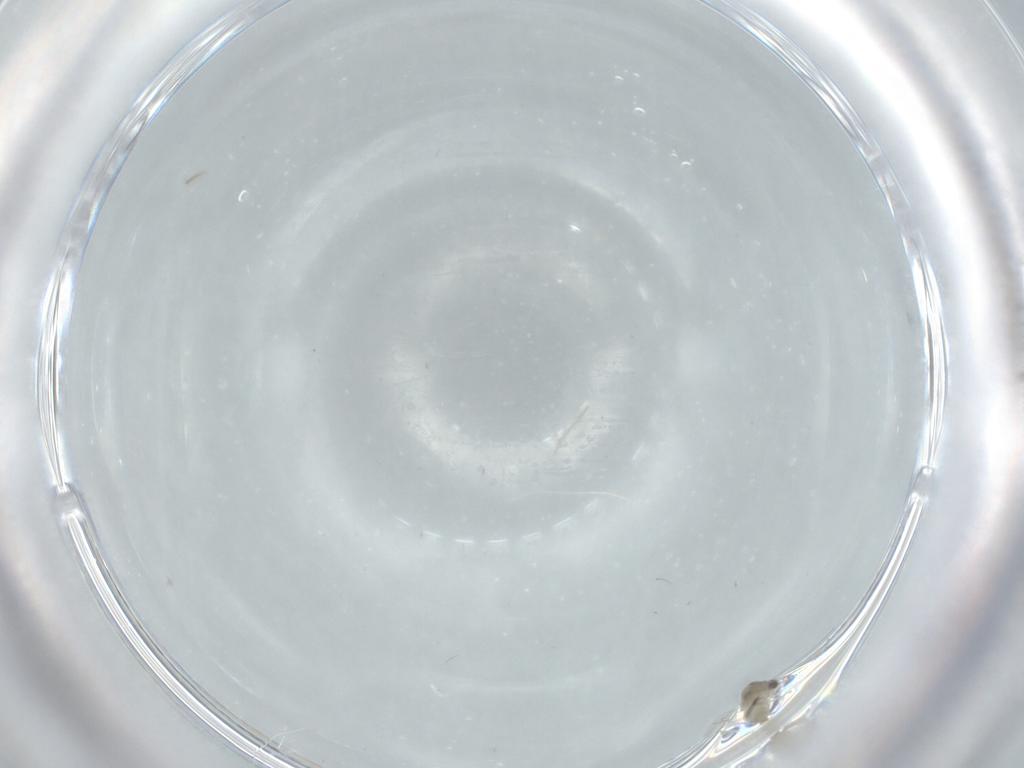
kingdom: Animalia
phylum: Arthropoda
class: Insecta
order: Diptera
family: Cecidomyiidae
